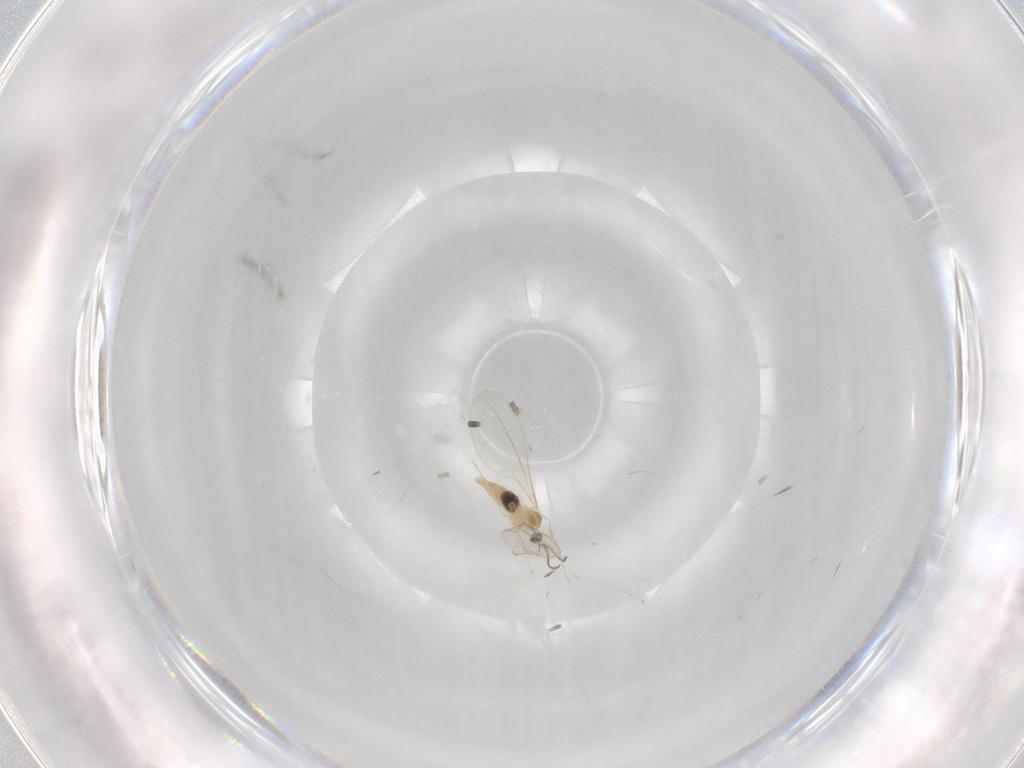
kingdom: Animalia
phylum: Arthropoda
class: Insecta
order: Diptera
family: Cecidomyiidae
